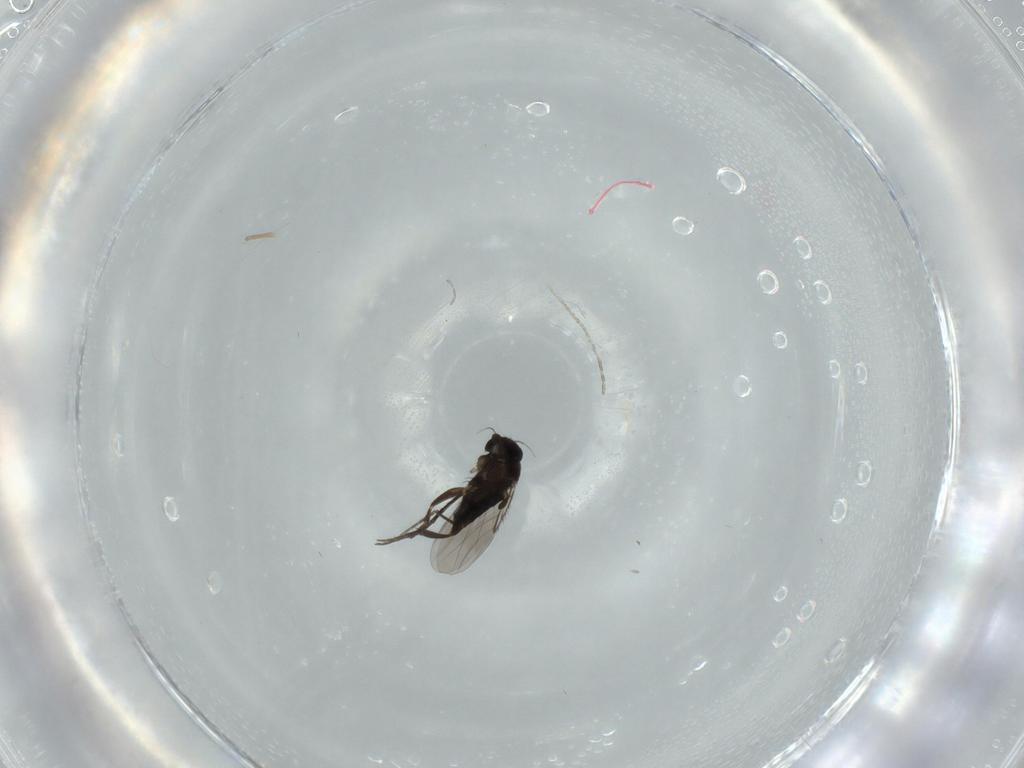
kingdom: Animalia
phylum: Arthropoda
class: Insecta
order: Diptera
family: Phoridae
